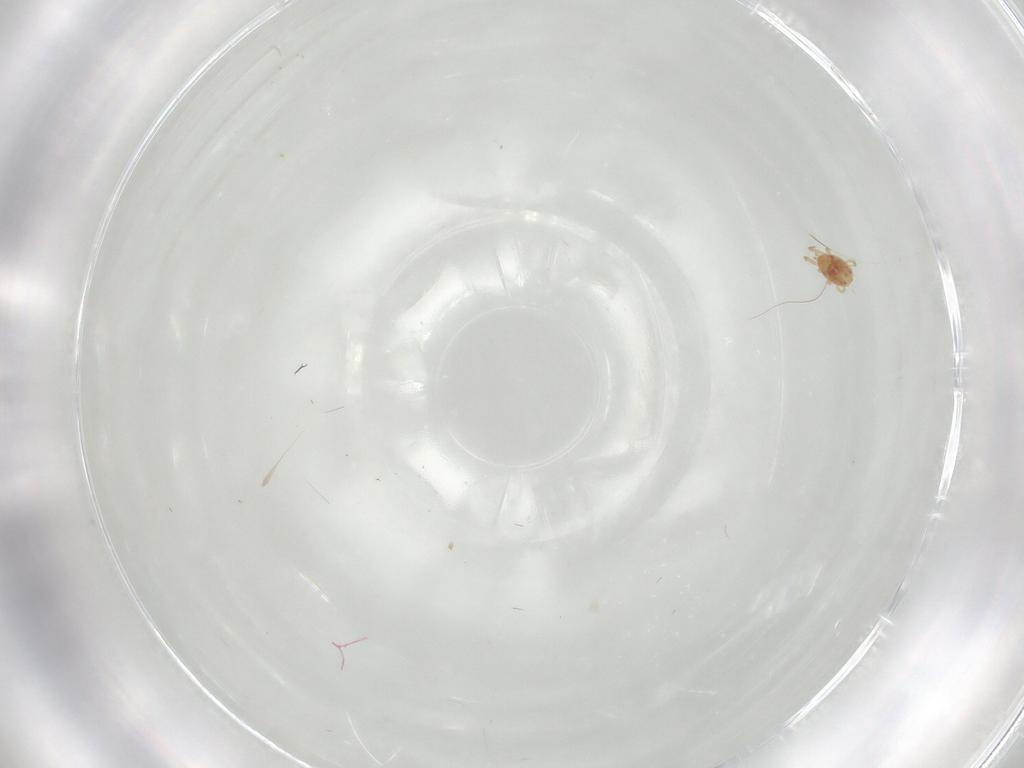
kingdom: Animalia
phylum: Arthropoda
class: Arachnida
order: Mesostigmata
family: Phytoseiidae
